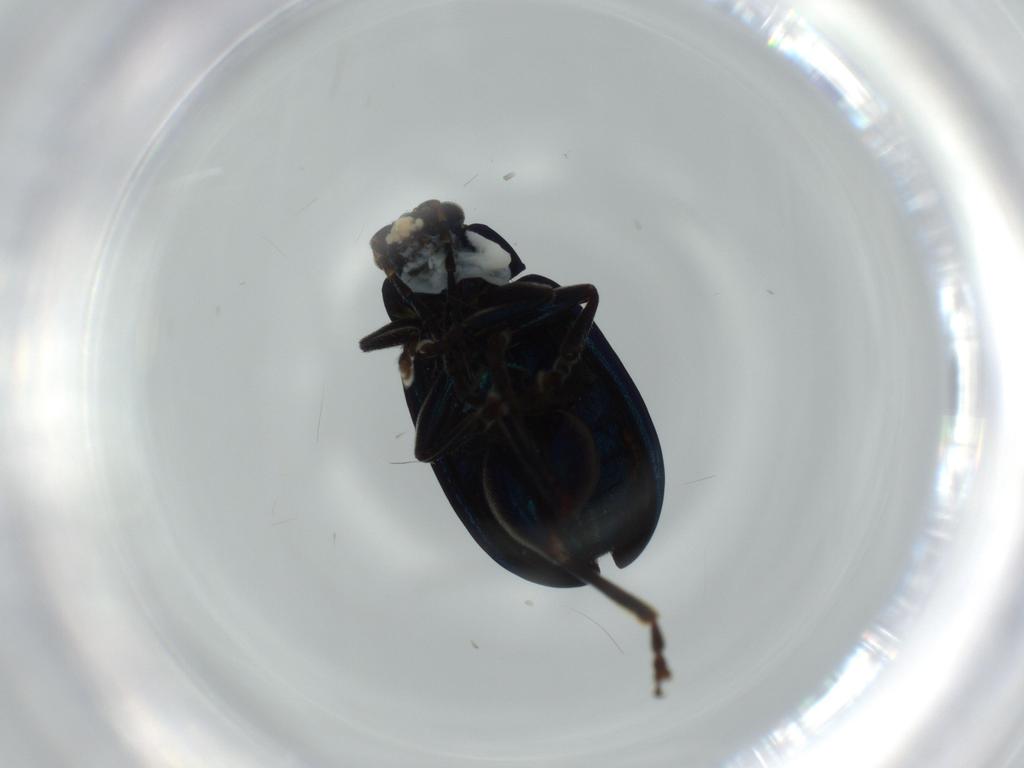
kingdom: Animalia
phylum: Arthropoda
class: Insecta
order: Coleoptera
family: Chrysomelidae
